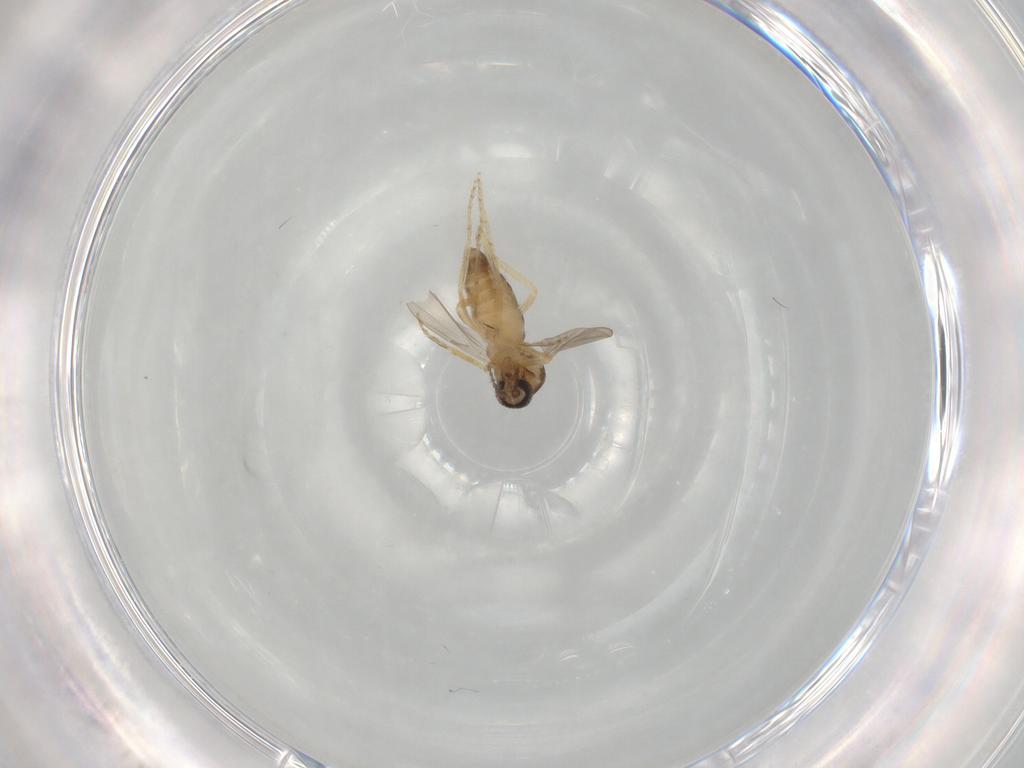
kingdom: Animalia
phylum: Arthropoda
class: Insecta
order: Diptera
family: Ceratopogonidae
